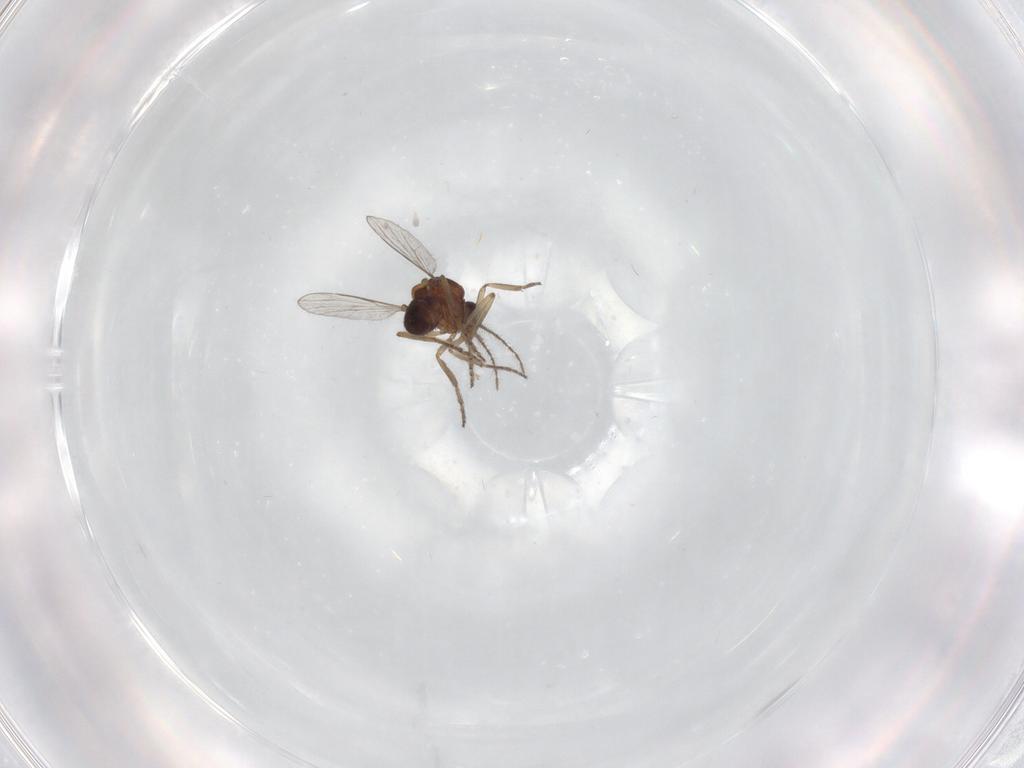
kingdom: Animalia
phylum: Arthropoda
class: Insecta
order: Diptera
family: Ceratopogonidae
